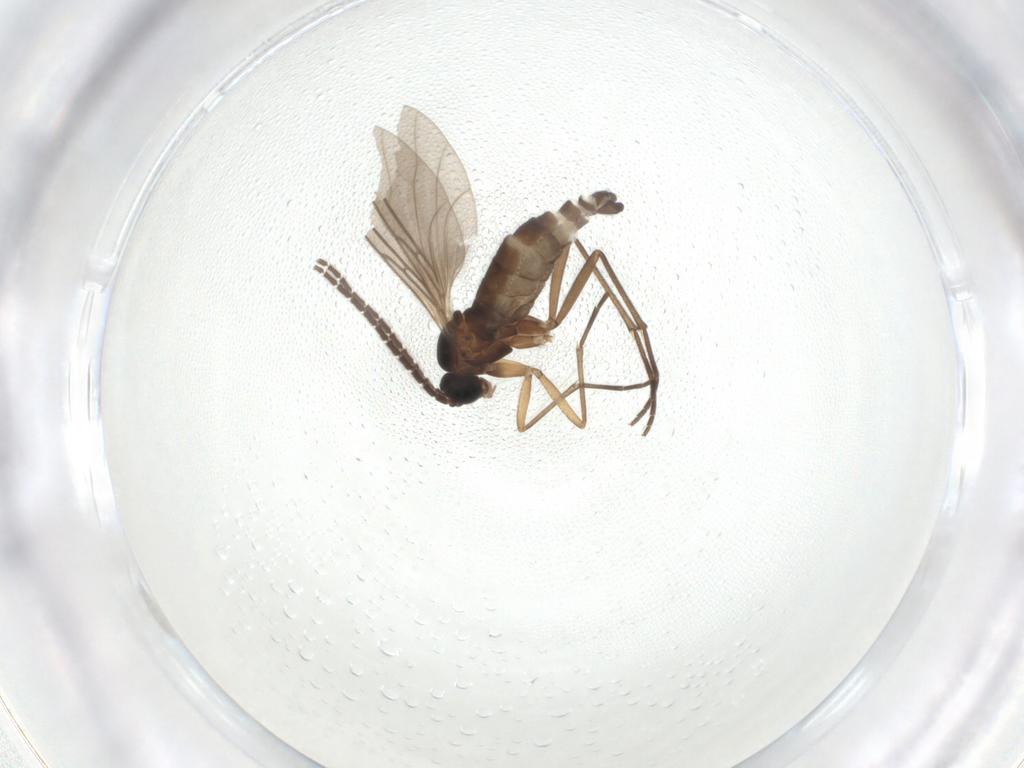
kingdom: Animalia
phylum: Arthropoda
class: Insecta
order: Diptera
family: Sciaridae
